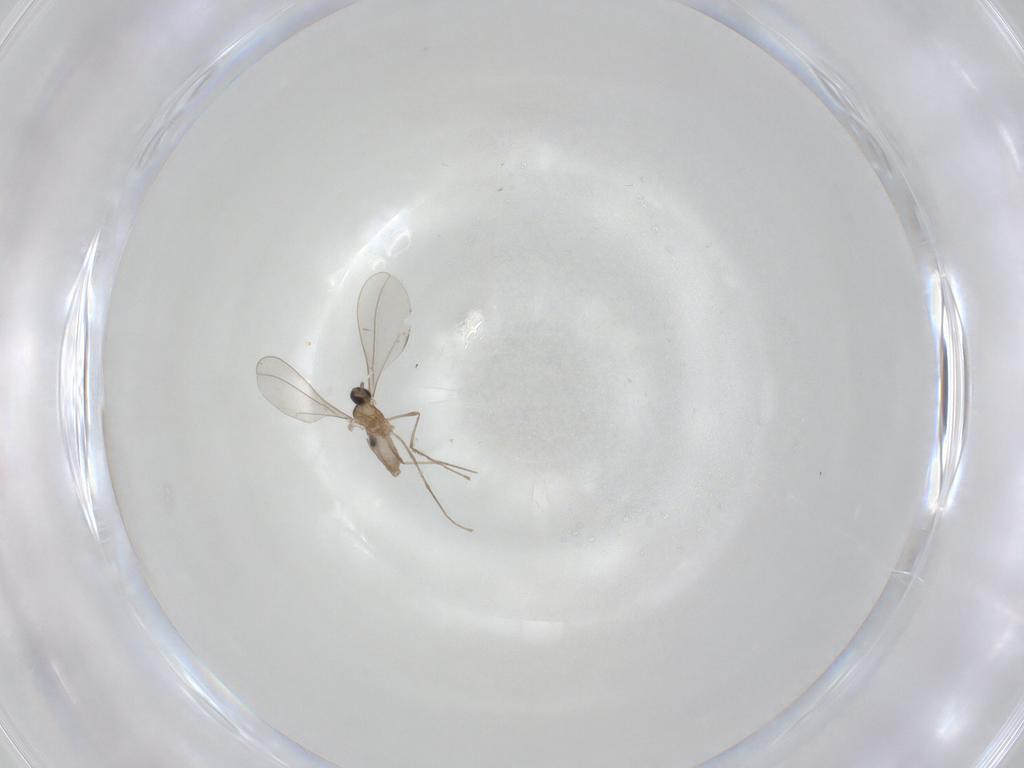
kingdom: Animalia
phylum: Arthropoda
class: Insecta
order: Diptera
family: Cecidomyiidae
